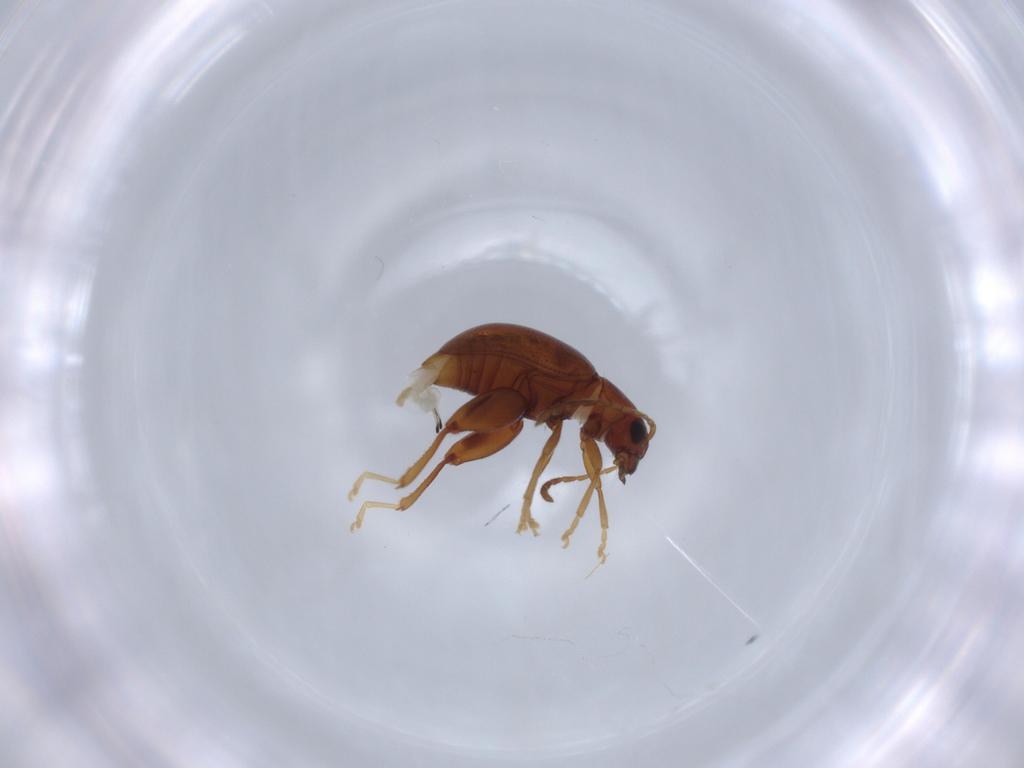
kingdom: Animalia
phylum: Arthropoda
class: Insecta
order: Coleoptera
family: Chrysomelidae
